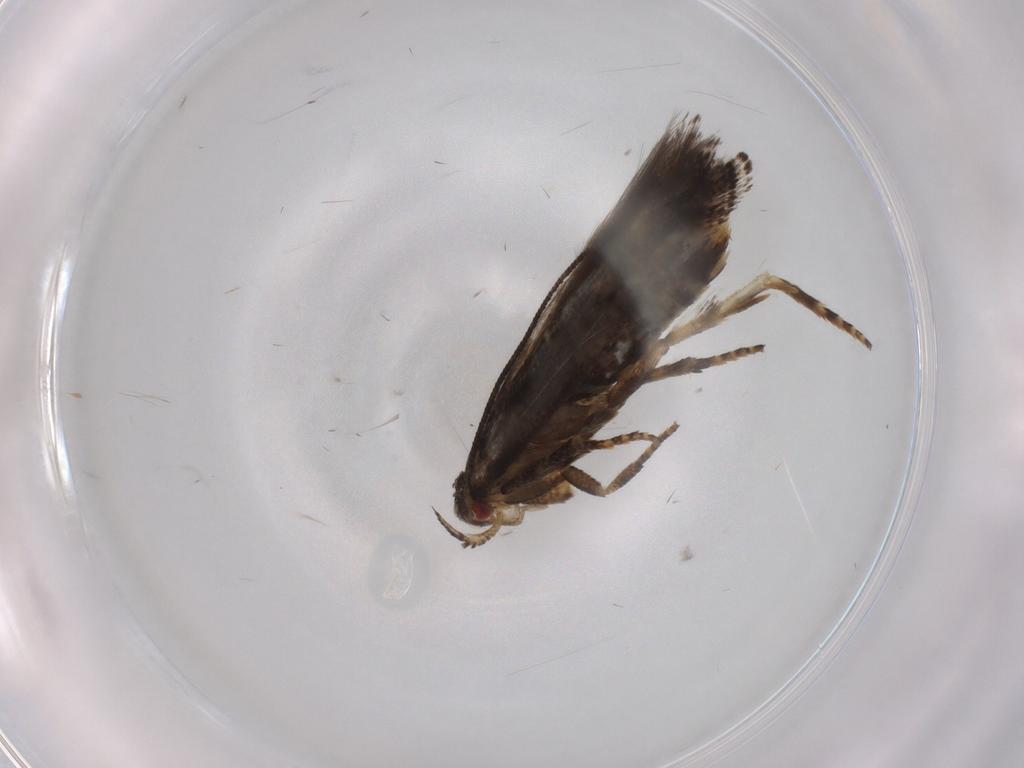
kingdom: Animalia
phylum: Arthropoda
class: Insecta
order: Lepidoptera
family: Momphidae
